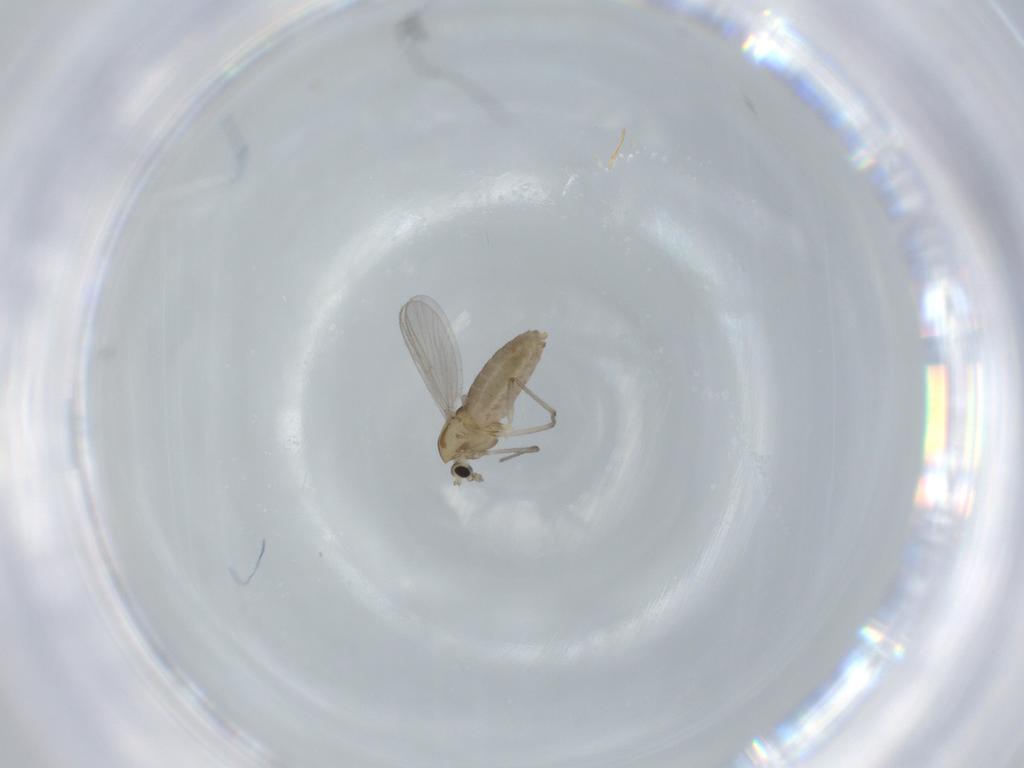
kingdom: Animalia
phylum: Arthropoda
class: Insecta
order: Diptera
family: Chironomidae
